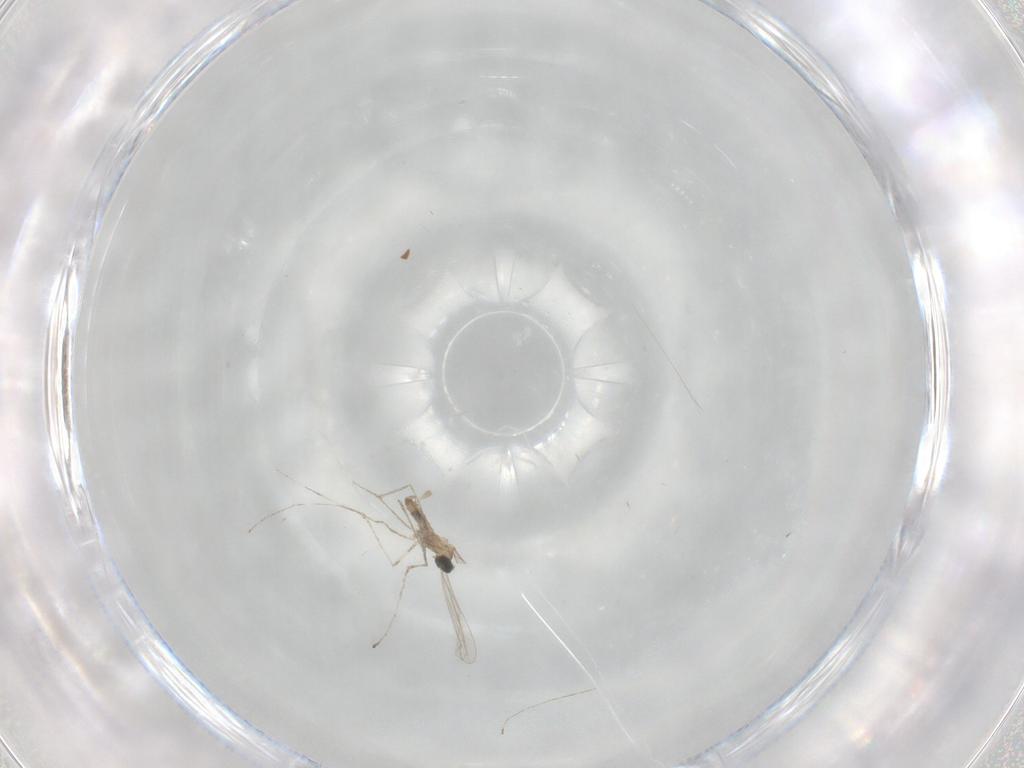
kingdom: Animalia
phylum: Arthropoda
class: Insecta
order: Diptera
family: Cecidomyiidae
